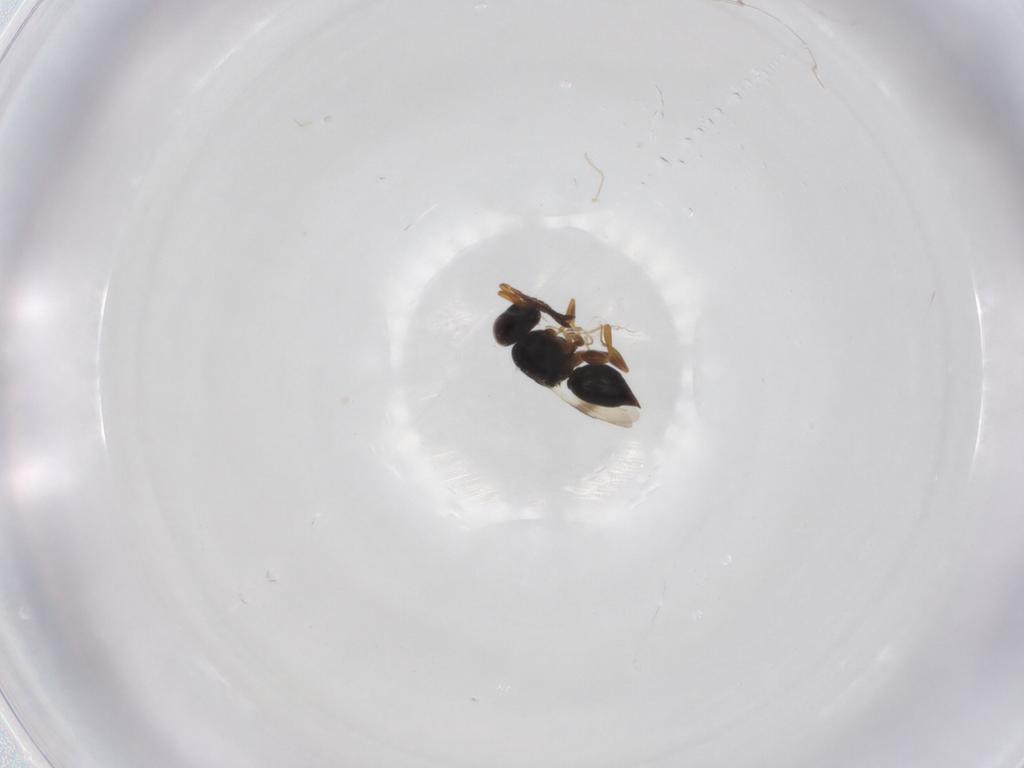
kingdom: Animalia
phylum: Arthropoda
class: Insecta
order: Hymenoptera
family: Ceraphronidae
